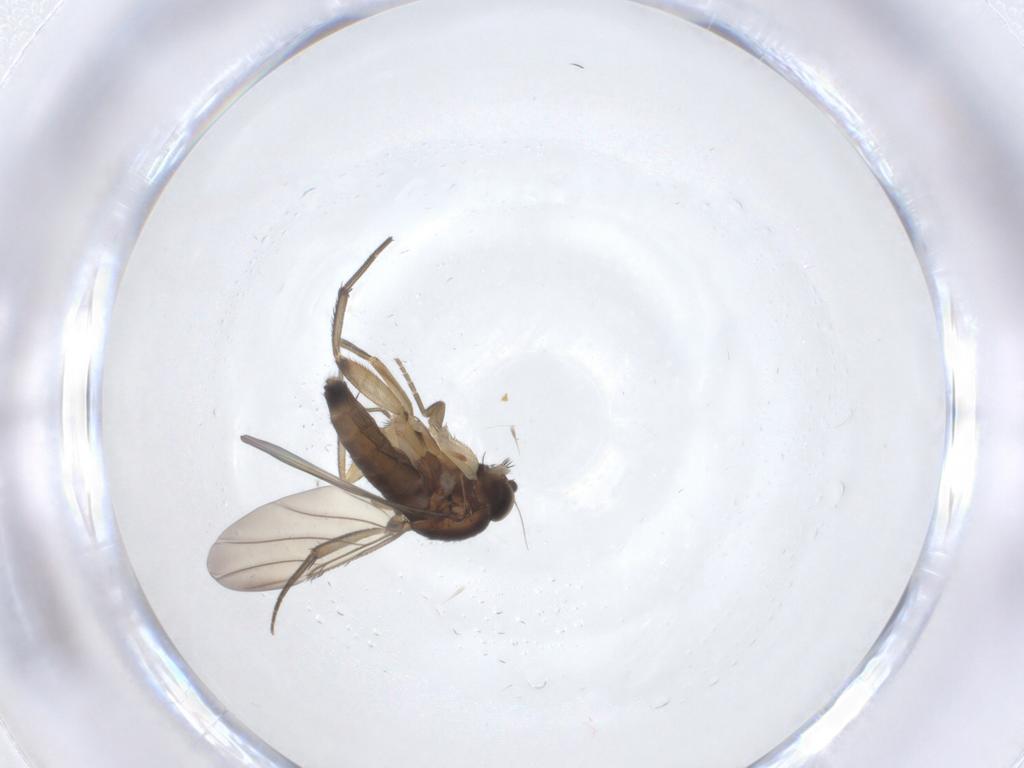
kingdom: Animalia
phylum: Arthropoda
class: Insecta
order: Diptera
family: Phoridae
